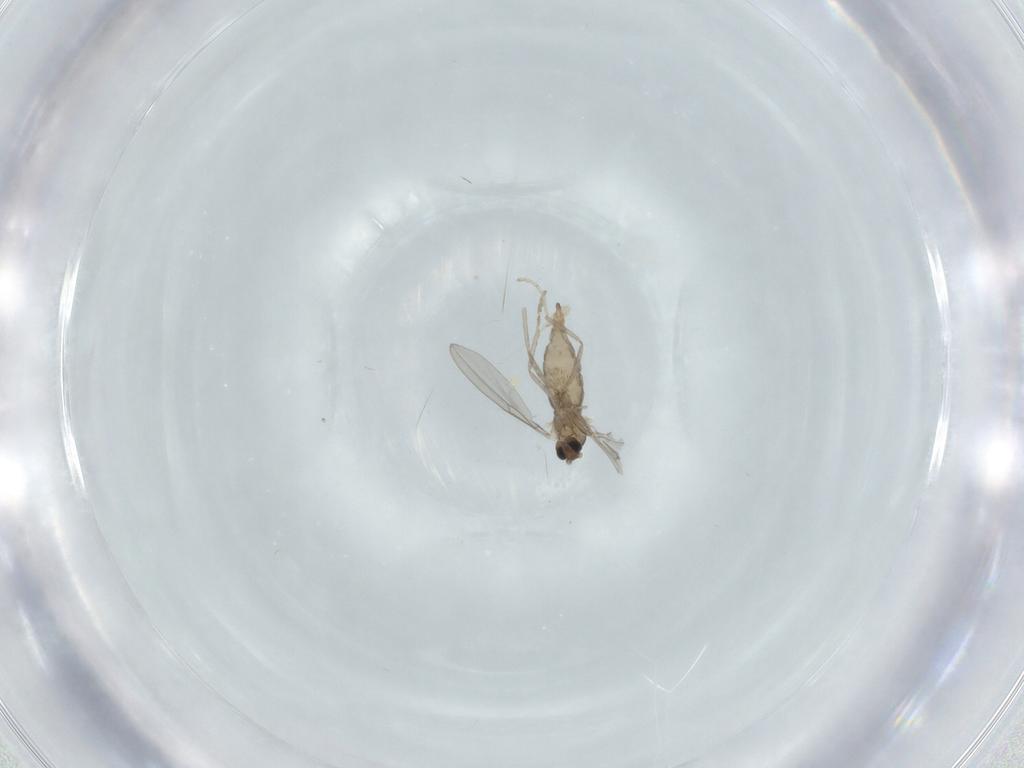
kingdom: Animalia
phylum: Arthropoda
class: Insecta
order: Diptera
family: Cecidomyiidae
